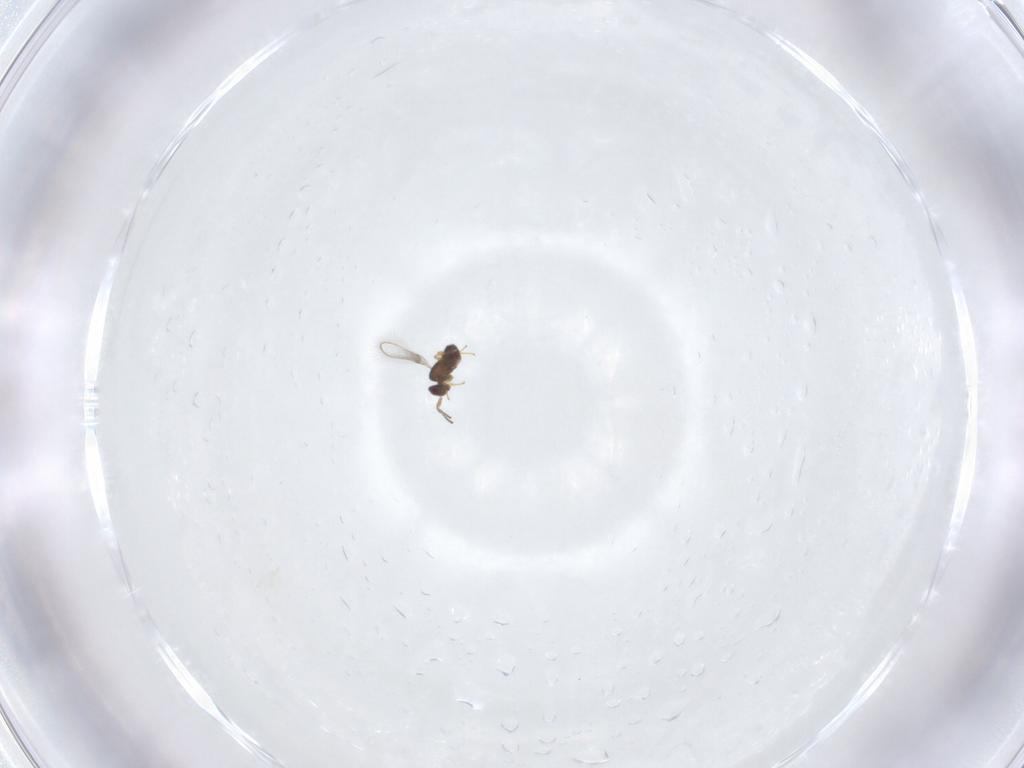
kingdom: Animalia
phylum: Arthropoda
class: Insecta
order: Hymenoptera
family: Mymaridae
